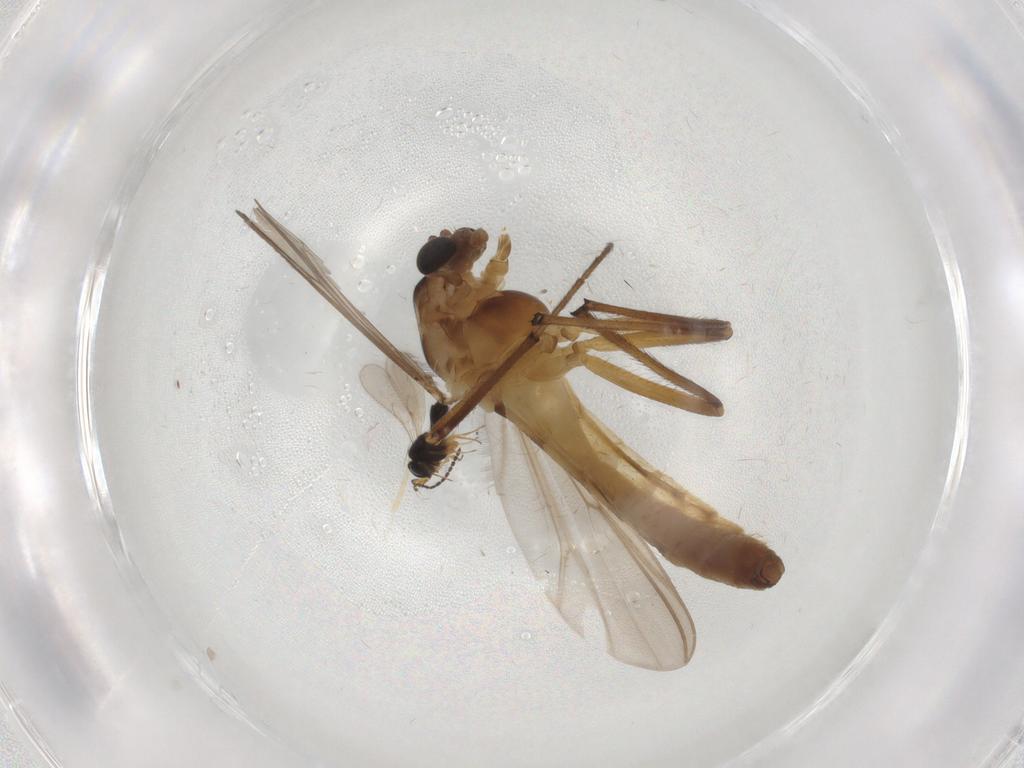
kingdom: Animalia
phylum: Arthropoda
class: Insecta
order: Diptera
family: Chironomidae
